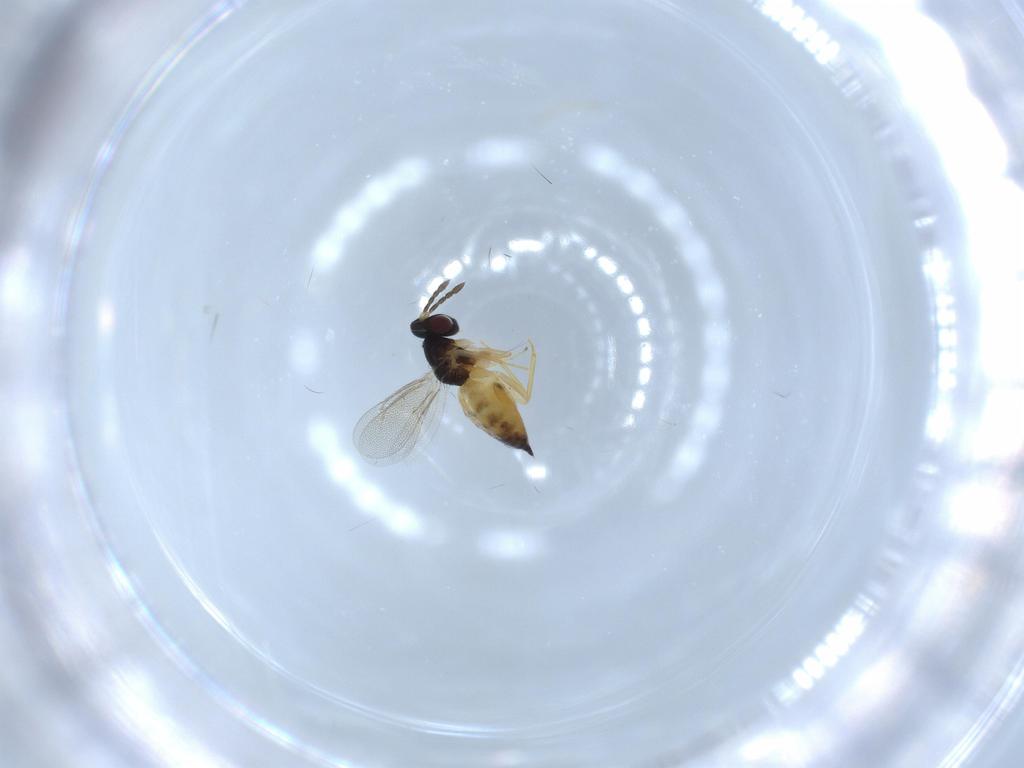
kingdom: Animalia
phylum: Arthropoda
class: Insecta
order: Hymenoptera
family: Eulophidae
